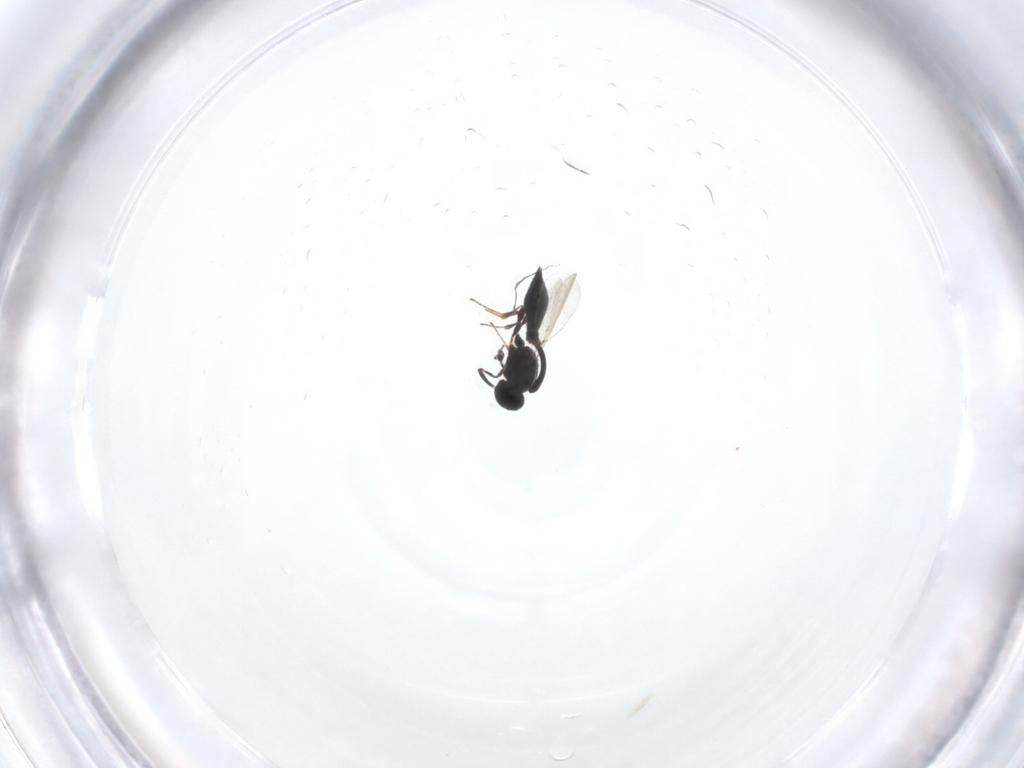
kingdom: Animalia
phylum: Arthropoda
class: Insecta
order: Hymenoptera
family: Platygastridae
